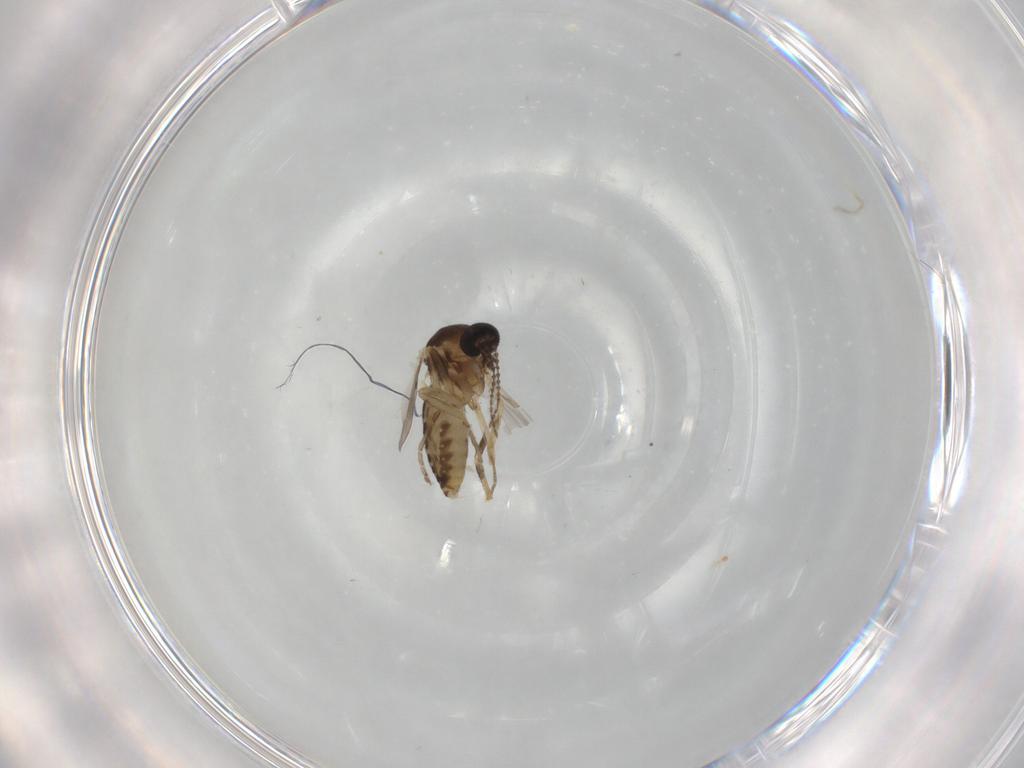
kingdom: Animalia
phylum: Arthropoda
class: Insecta
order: Diptera
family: Ceratopogonidae
